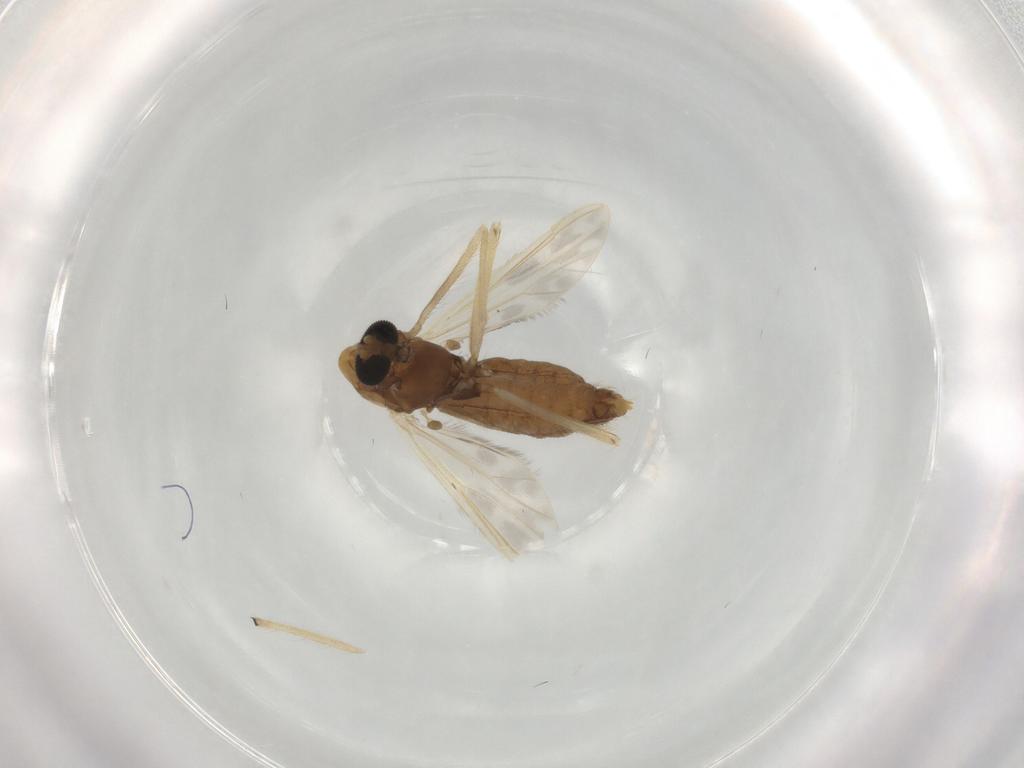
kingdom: Animalia
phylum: Arthropoda
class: Insecta
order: Diptera
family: Chironomidae
